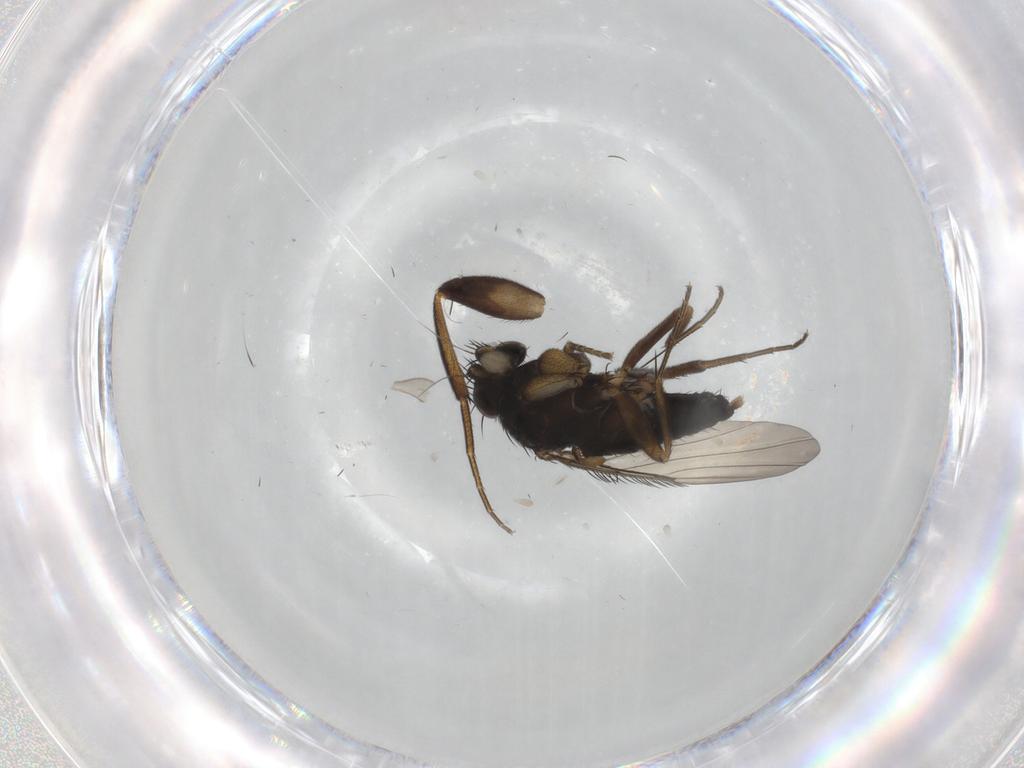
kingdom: Animalia
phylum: Arthropoda
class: Insecta
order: Diptera
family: Phoridae
